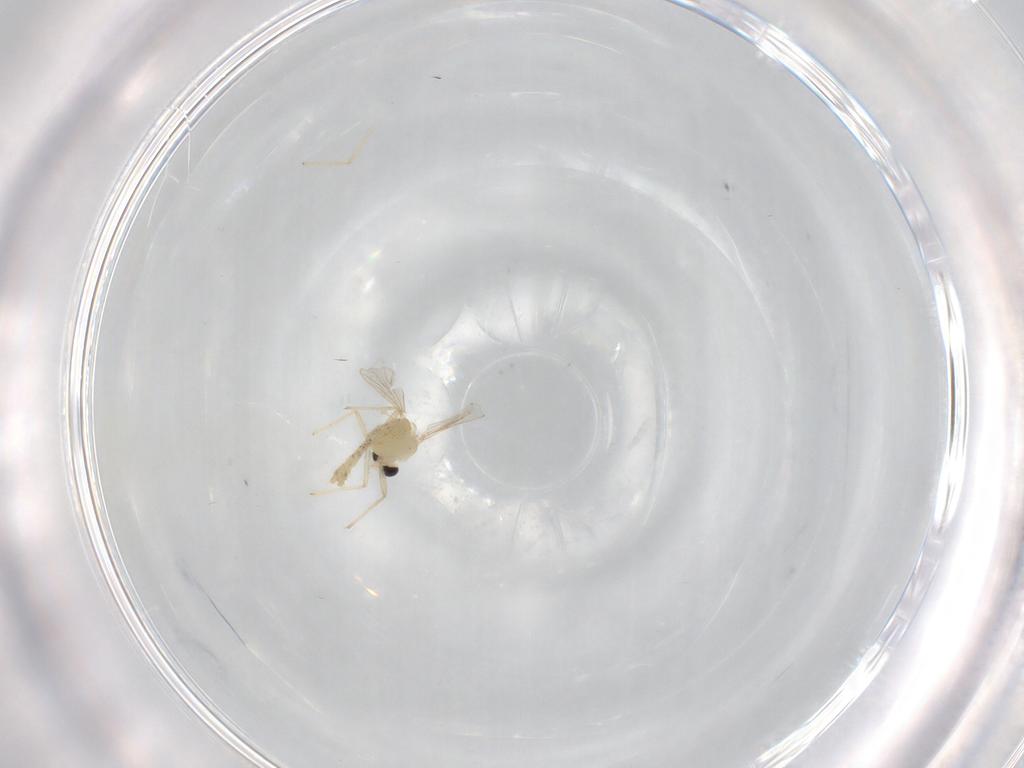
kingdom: Animalia
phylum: Arthropoda
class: Insecta
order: Diptera
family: Chironomidae
